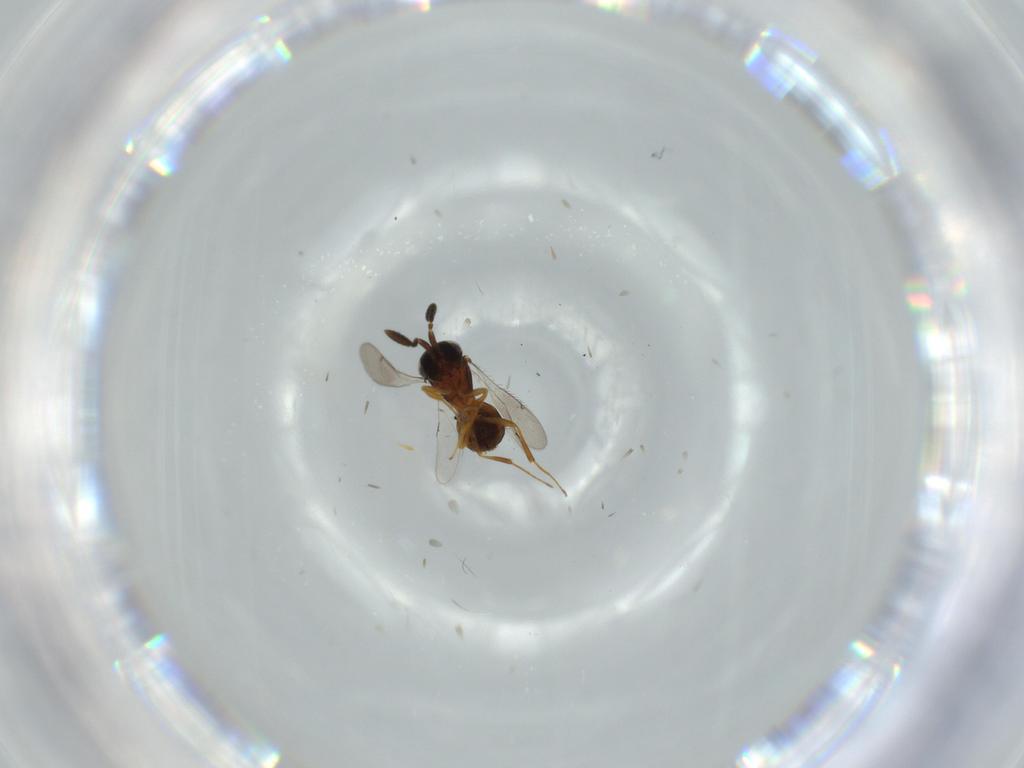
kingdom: Animalia
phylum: Arthropoda
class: Insecta
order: Hymenoptera
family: Scelionidae
